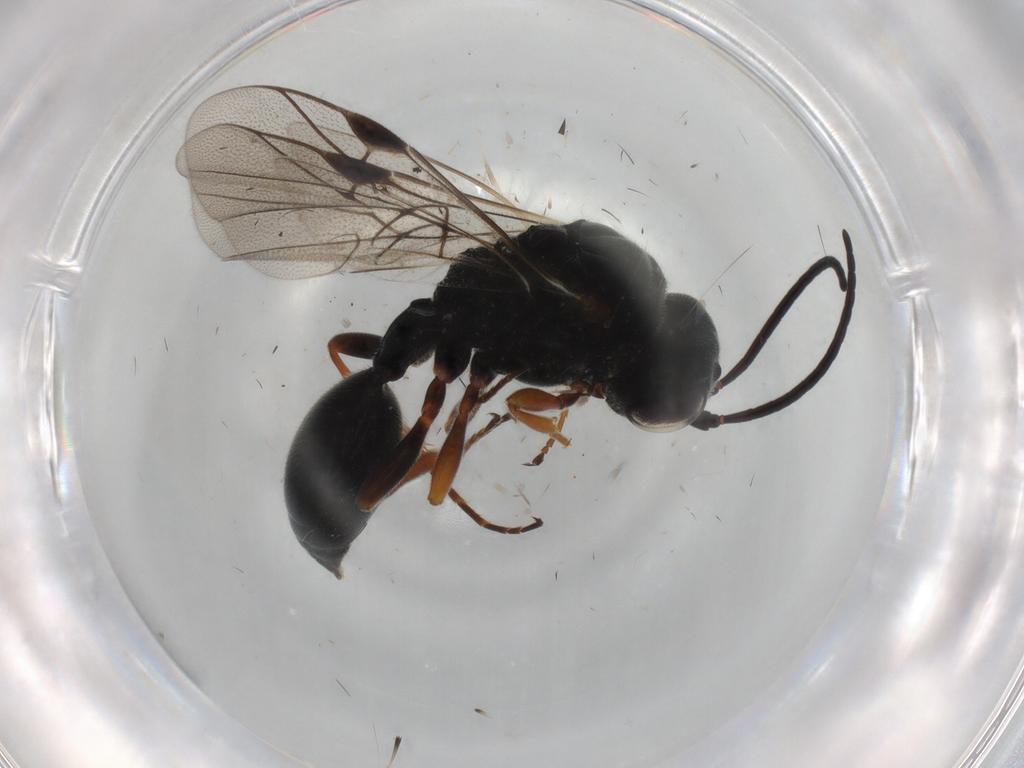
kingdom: Animalia
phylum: Arthropoda
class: Insecta
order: Hymenoptera
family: Heloridae
